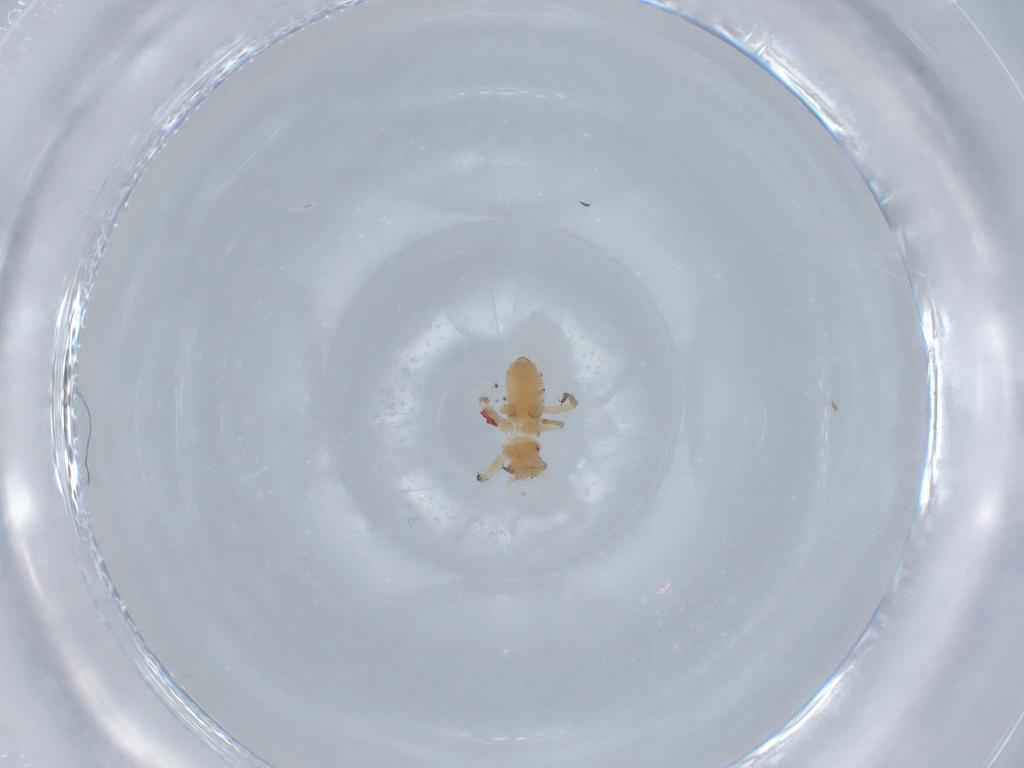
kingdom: Animalia
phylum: Arthropoda
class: Insecta
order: Hemiptera
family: Aphididae
